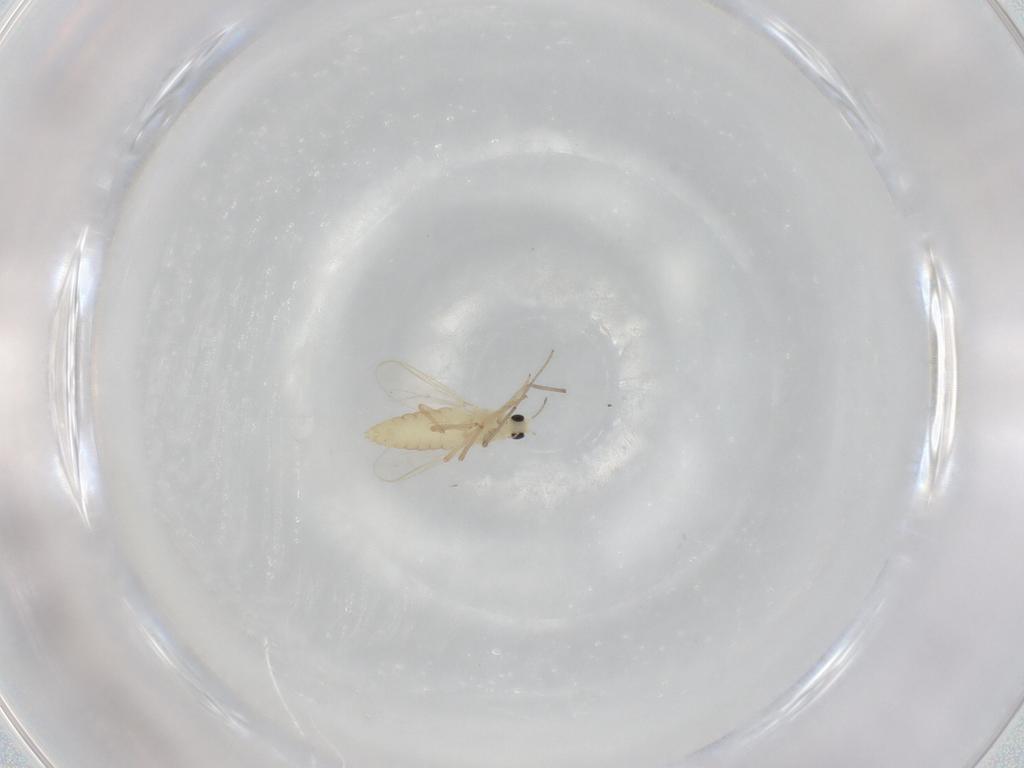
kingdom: Animalia
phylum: Arthropoda
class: Insecta
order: Diptera
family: Chironomidae
